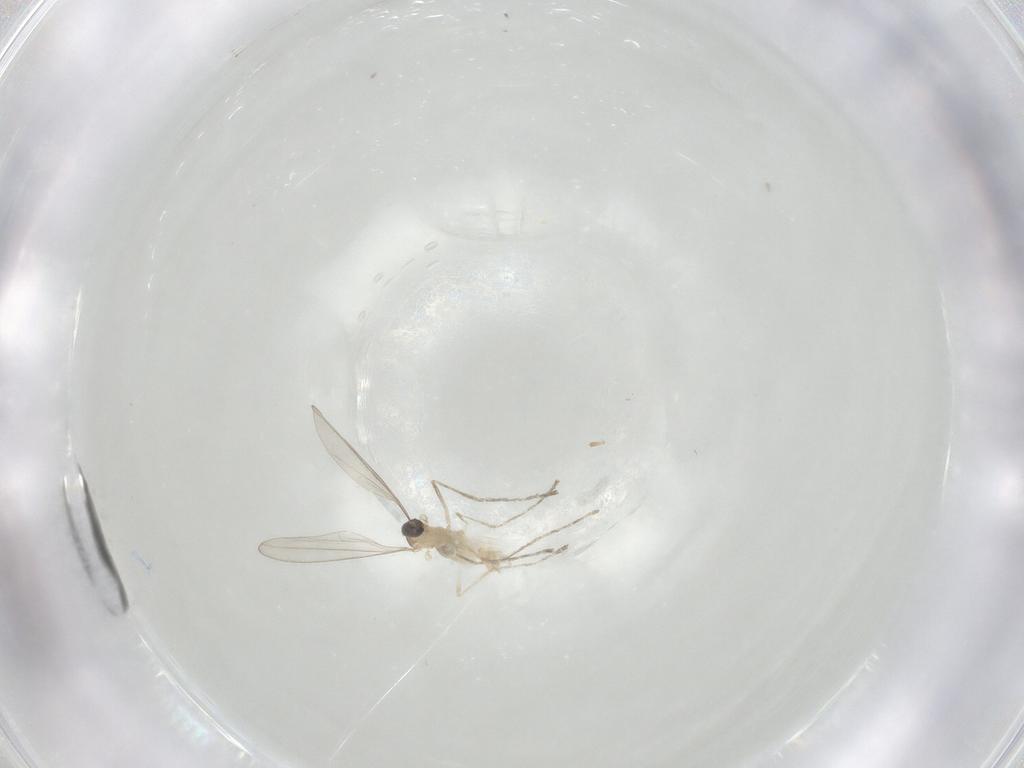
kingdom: Animalia
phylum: Arthropoda
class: Insecta
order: Diptera
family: Cecidomyiidae
